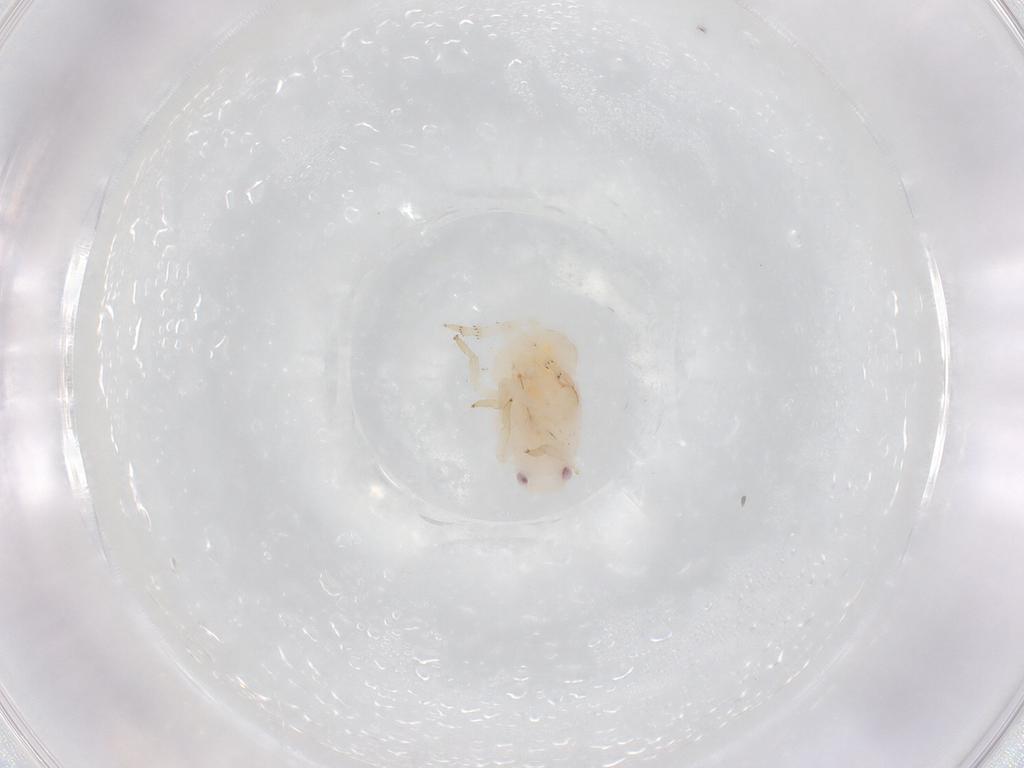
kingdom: Animalia
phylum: Arthropoda
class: Insecta
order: Hemiptera
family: Flatidae
